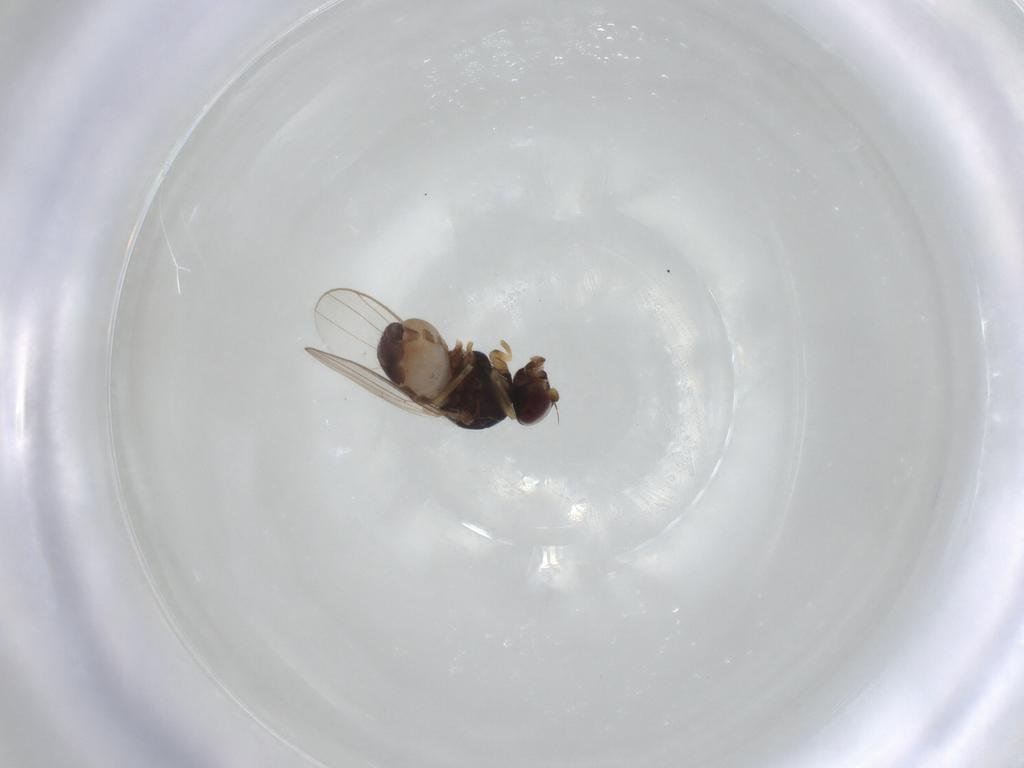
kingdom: Animalia
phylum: Arthropoda
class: Insecta
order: Diptera
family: Chloropidae
